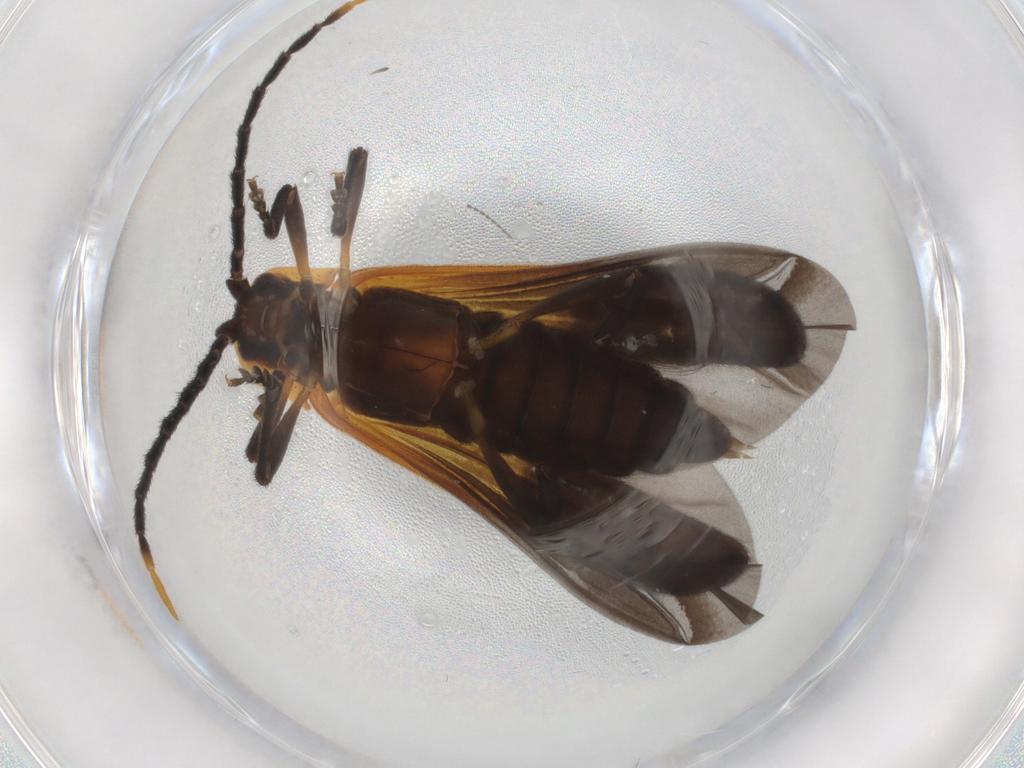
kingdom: Animalia
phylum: Arthropoda
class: Insecta
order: Coleoptera
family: Lycidae
